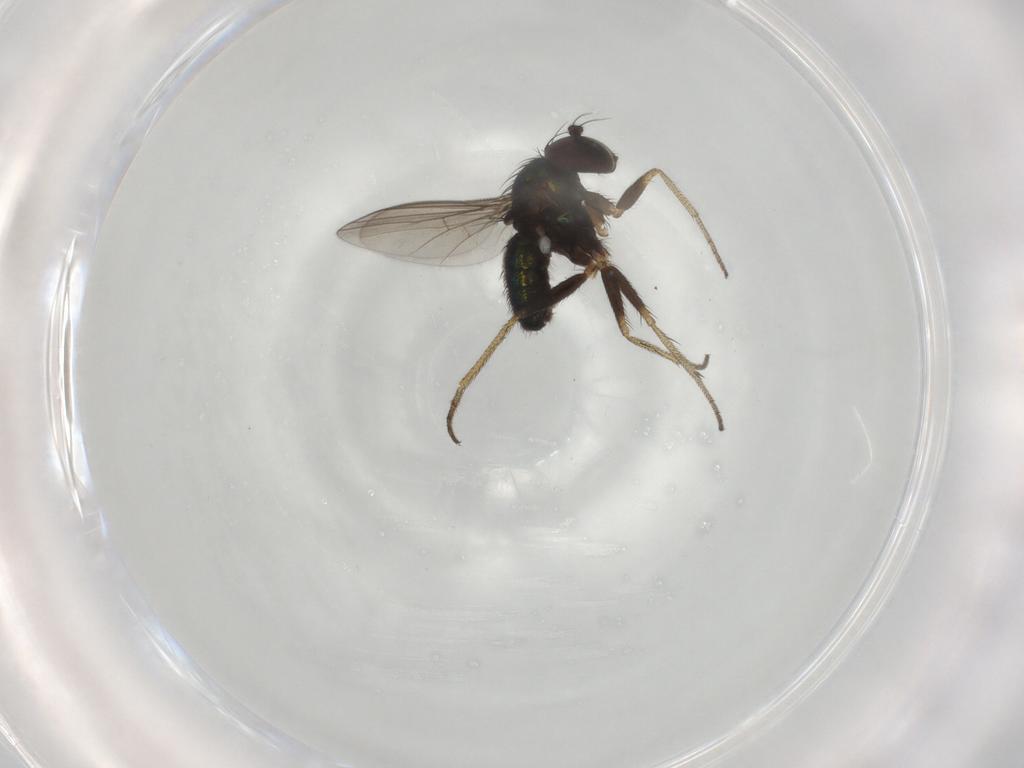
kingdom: Animalia
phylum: Arthropoda
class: Insecta
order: Diptera
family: Dolichopodidae
